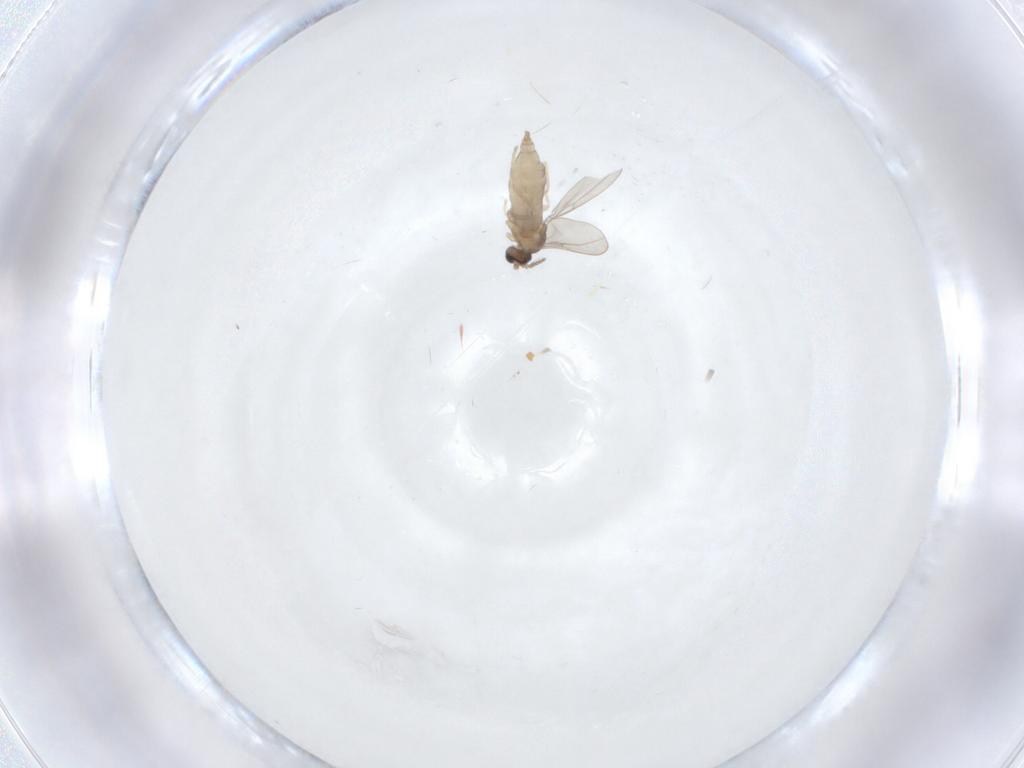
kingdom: Animalia
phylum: Arthropoda
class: Insecta
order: Diptera
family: Cecidomyiidae
